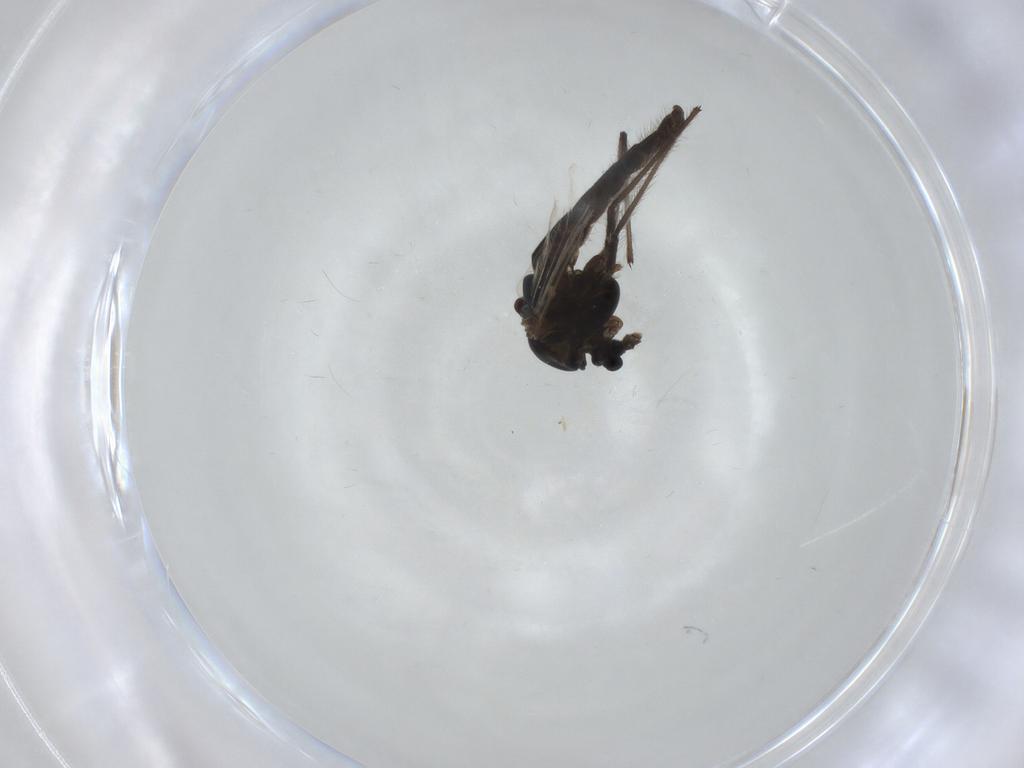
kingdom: Animalia
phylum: Arthropoda
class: Insecta
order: Diptera
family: Chironomidae
